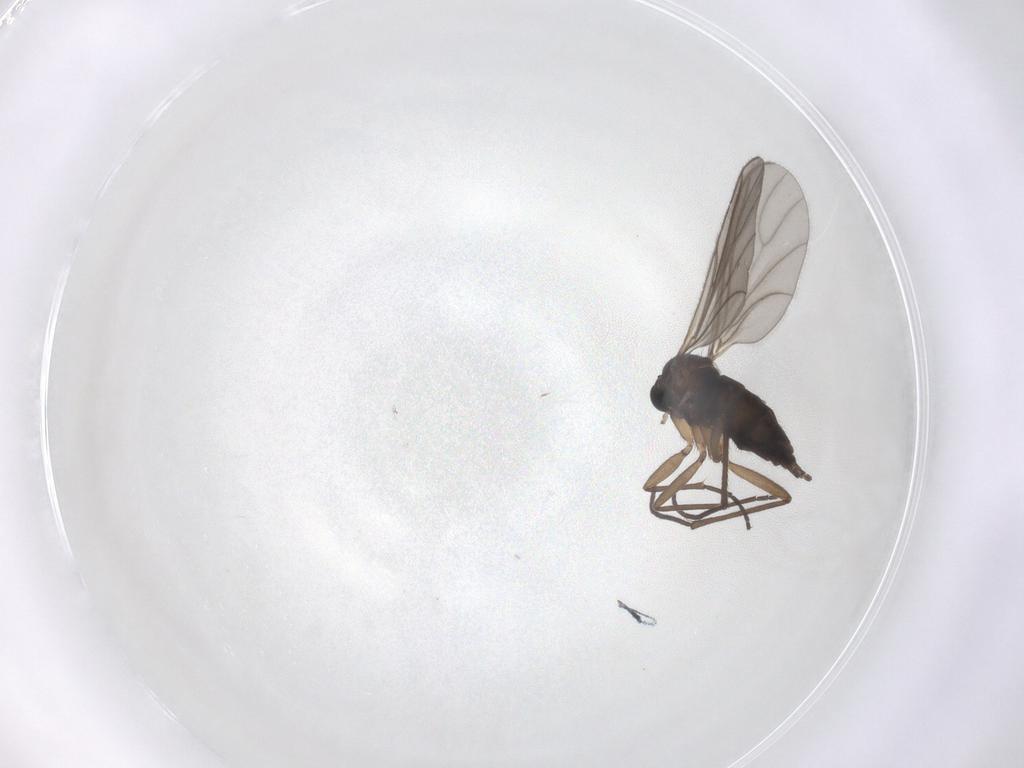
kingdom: Animalia
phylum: Arthropoda
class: Insecta
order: Diptera
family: Sciaridae
